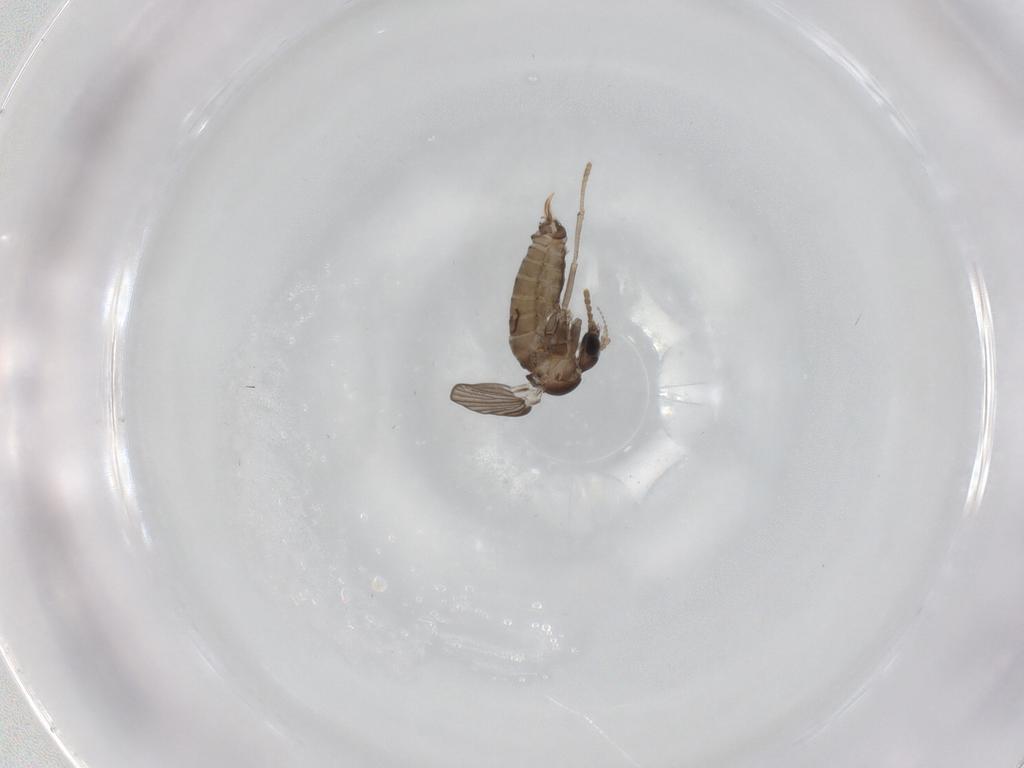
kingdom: Animalia
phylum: Arthropoda
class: Insecta
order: Diptera
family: Psychodidae
